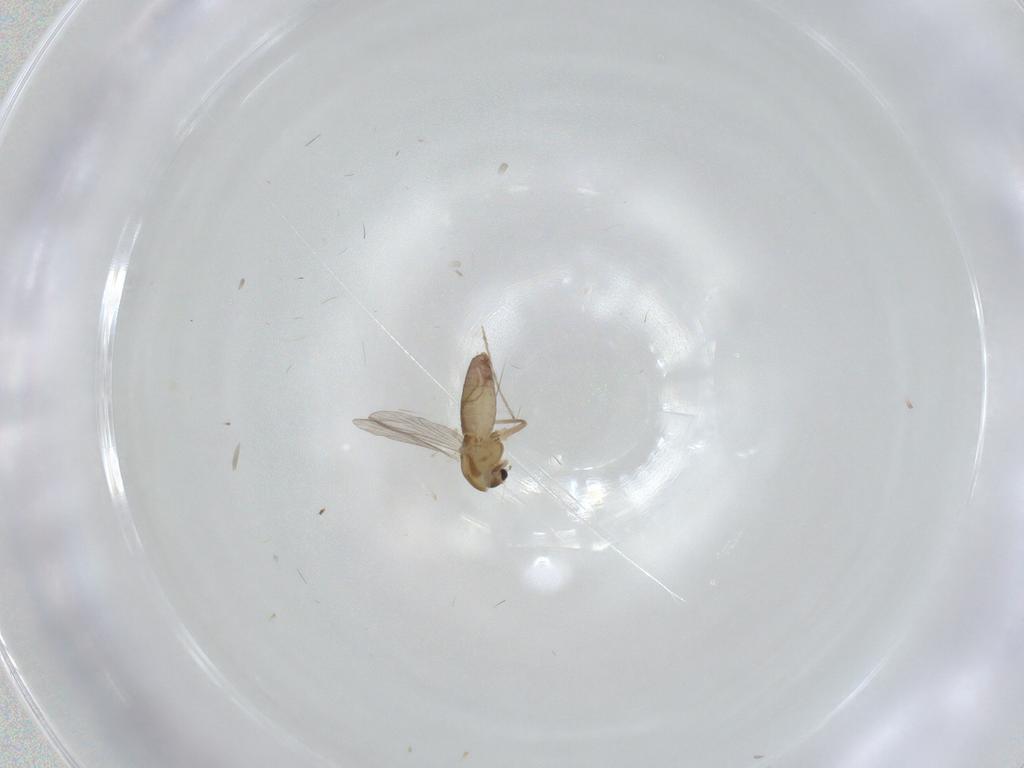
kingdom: Animalia
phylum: Arthropoda
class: Insecta
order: Diptera
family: Chironomidae
